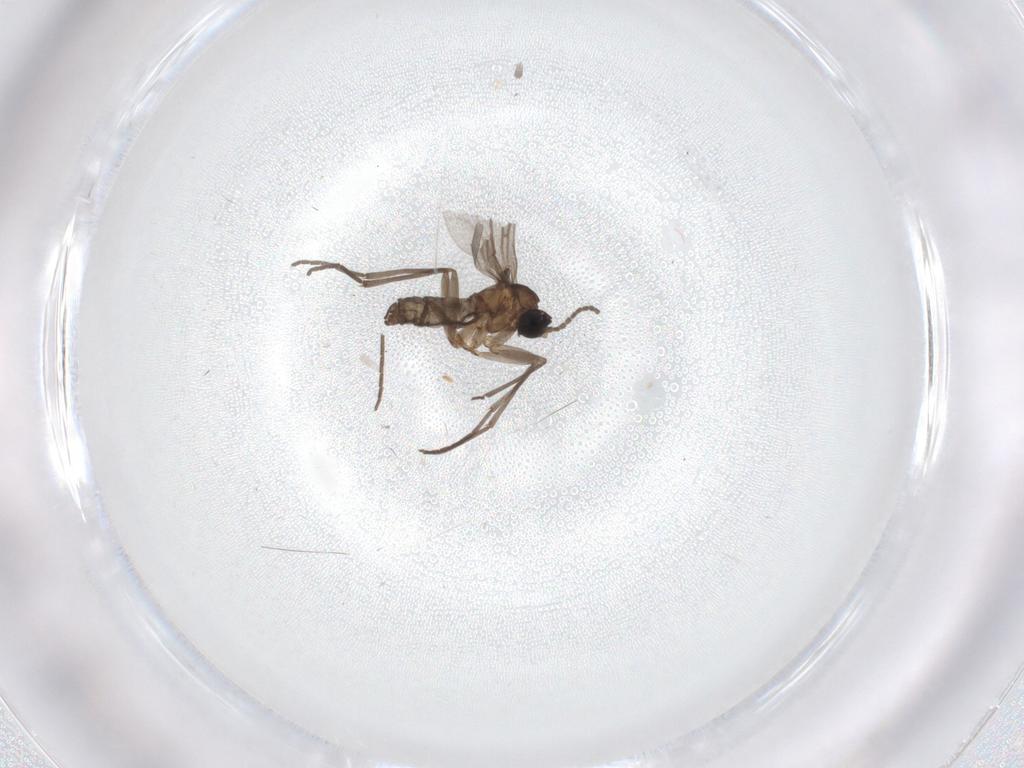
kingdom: Animalia
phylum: Arthropoda
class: Insecta
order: Diptera
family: Sciaridae
